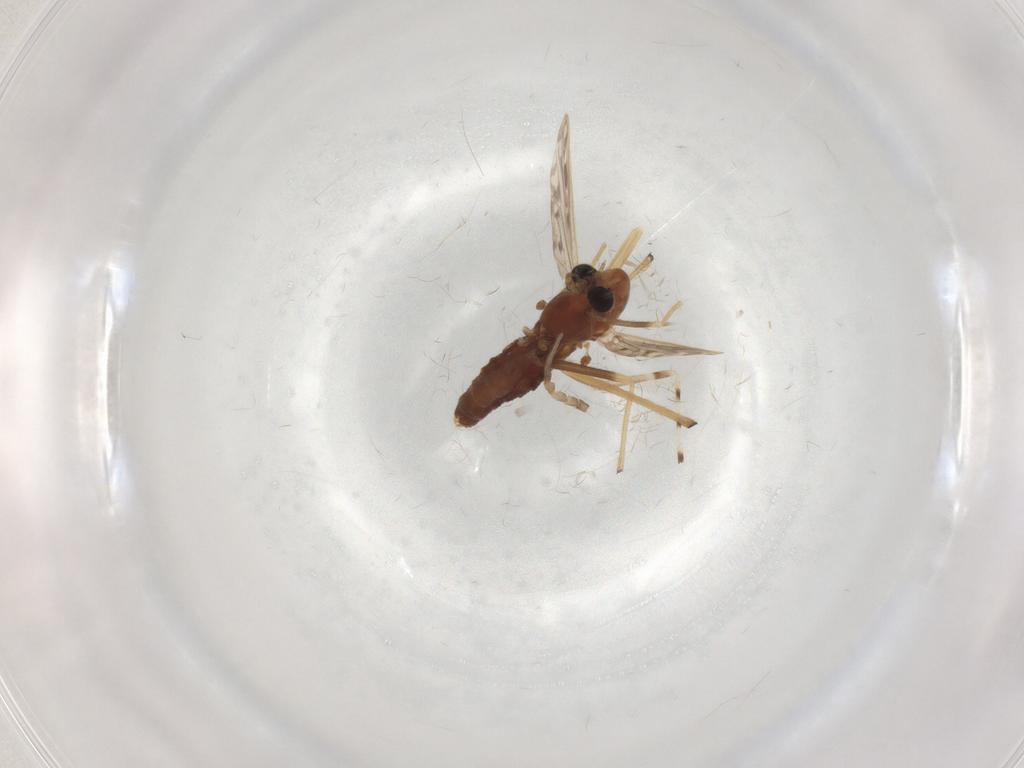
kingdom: Animalia
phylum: Arthropoda
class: Insecta
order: Diptera
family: Chironomidae
